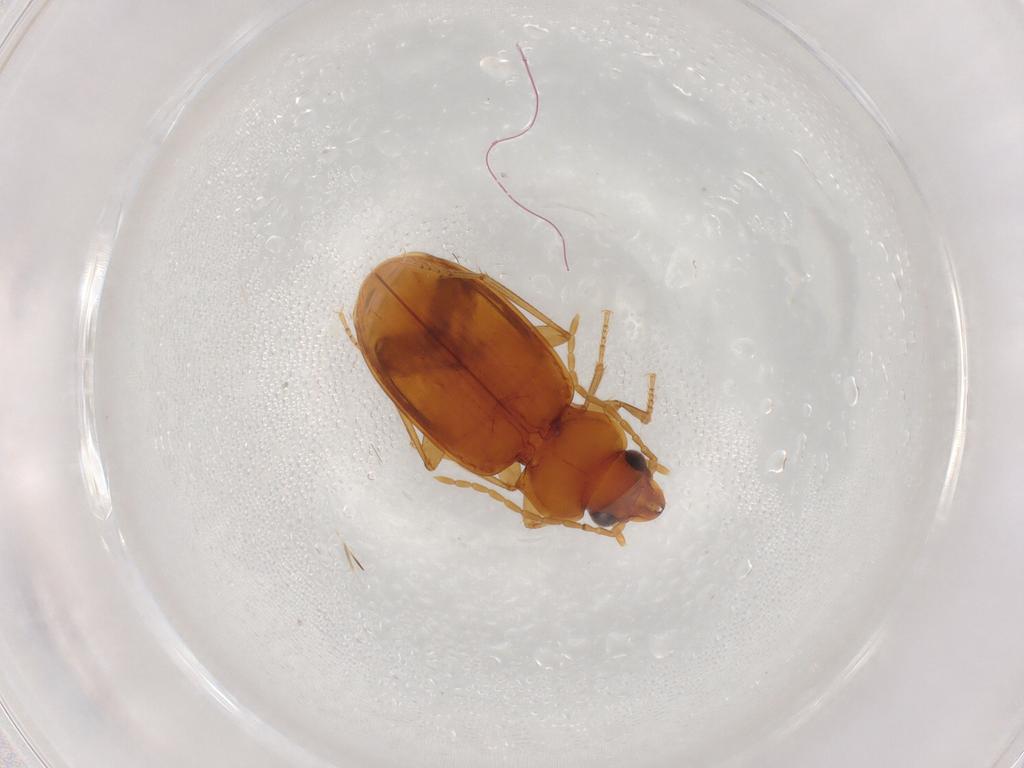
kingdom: Animalia
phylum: Arthropoda
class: Insecta
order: Coleoptera
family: Carabidae
